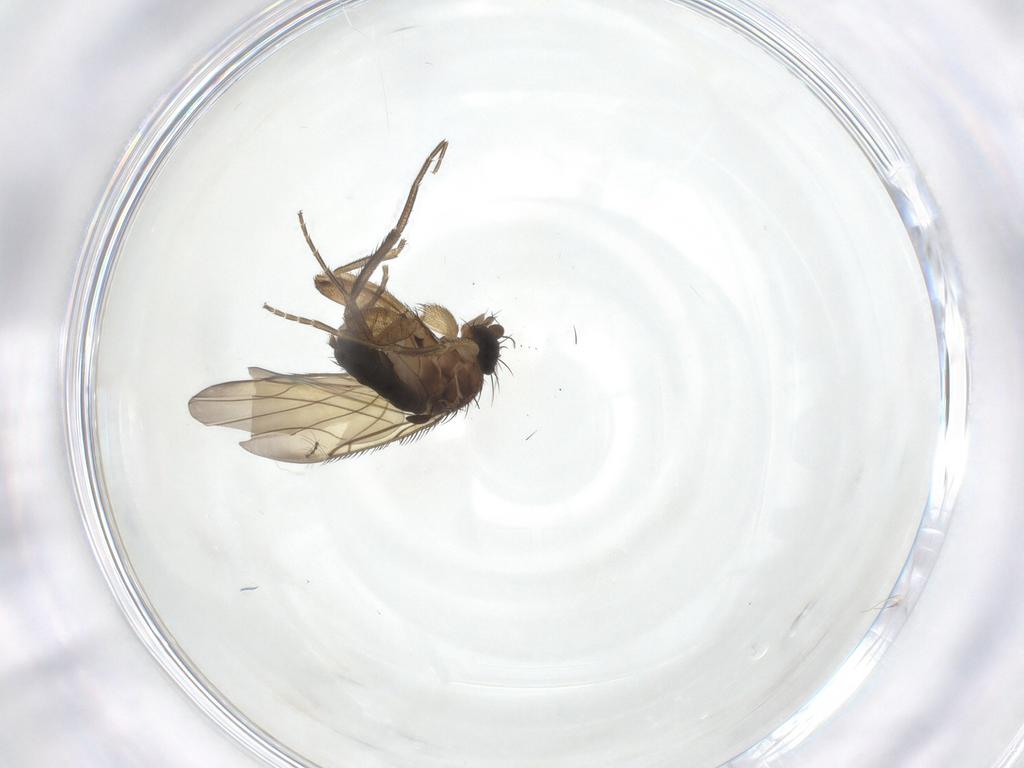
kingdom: Animalia
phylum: Arthropoda
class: Insecta
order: Diptera
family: Phoridae
